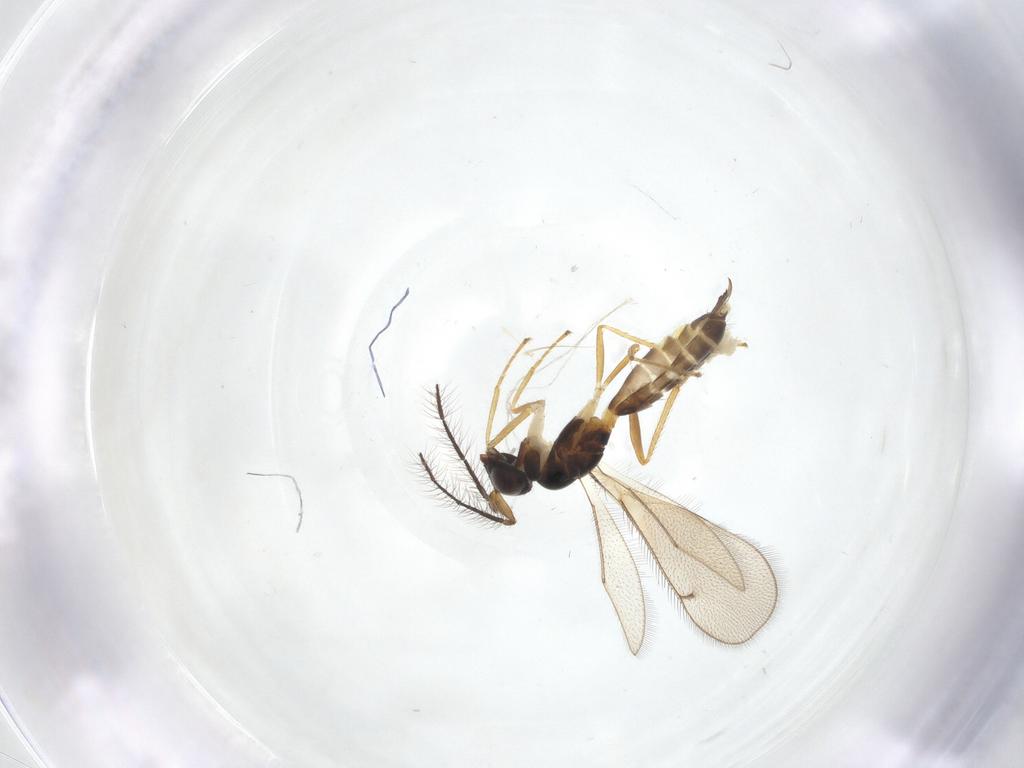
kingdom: Animalia
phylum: Arthropoda
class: Insecta
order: Hymenoptera
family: Eulophidae
